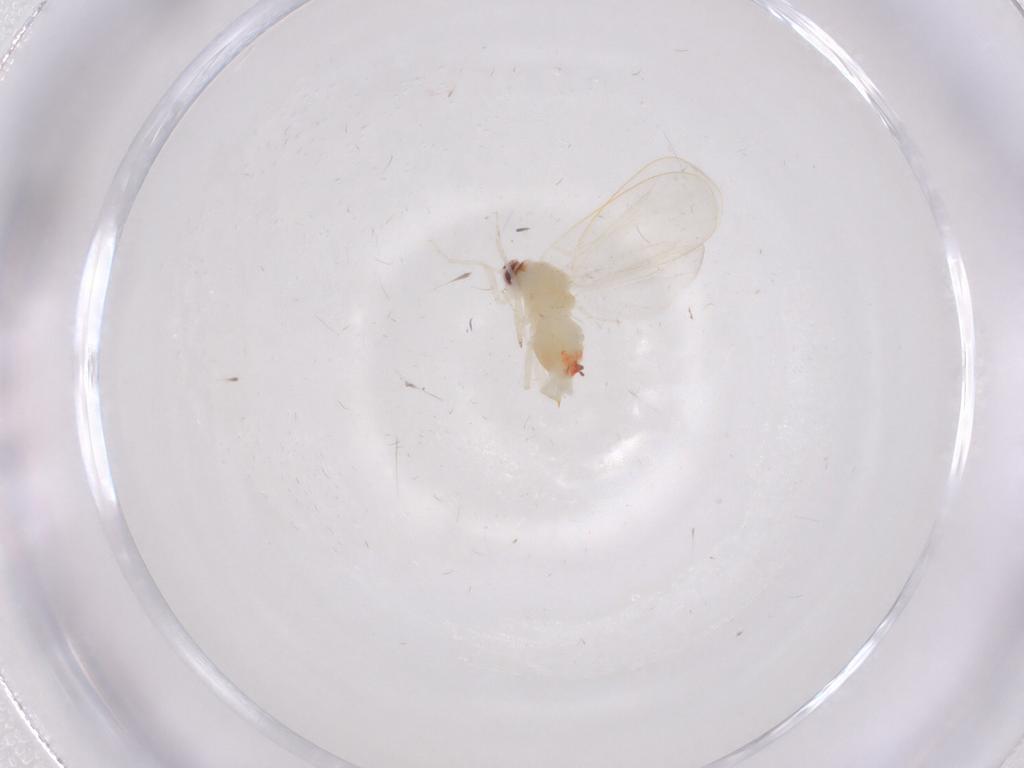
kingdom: Animalia
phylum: Arthropoda
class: Insecta
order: Hemiptera
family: Aleyrodidae
